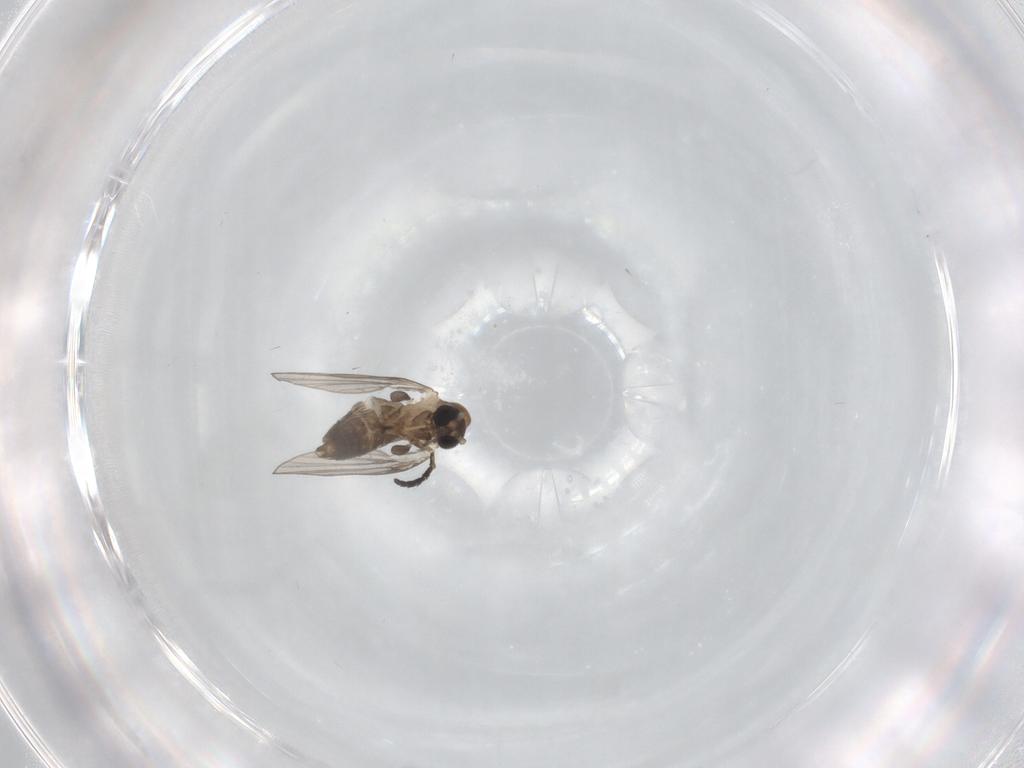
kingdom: Animalia
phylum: Arthropoda
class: Insecta
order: Diptera
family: Psychodidae
